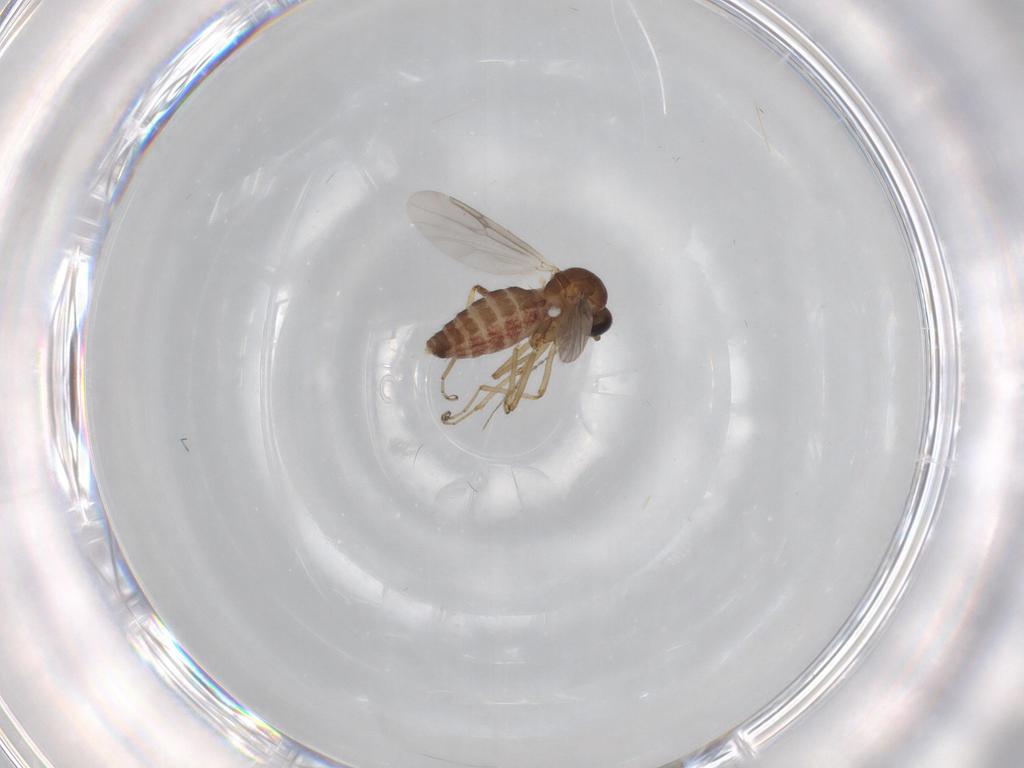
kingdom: Animalia
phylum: Arthropoda
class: Insecta
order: Diptera
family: Ceratopogonidae
